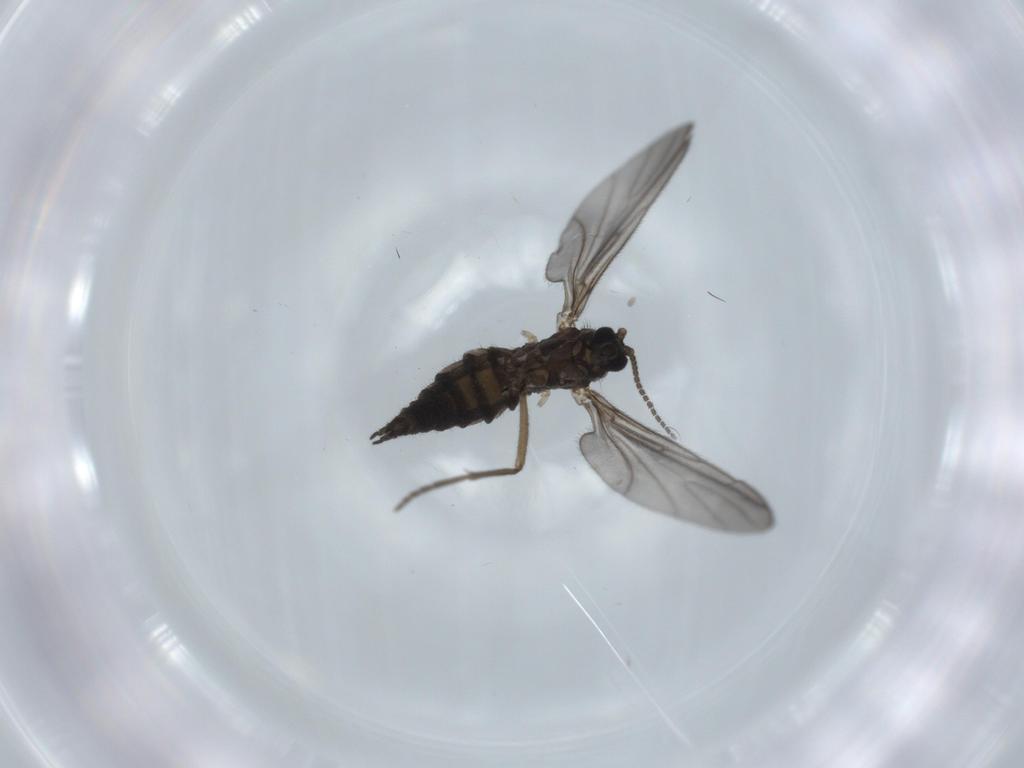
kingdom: Animalia
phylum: Arthropoda
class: Insecta
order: Diptera
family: Sciaridae
